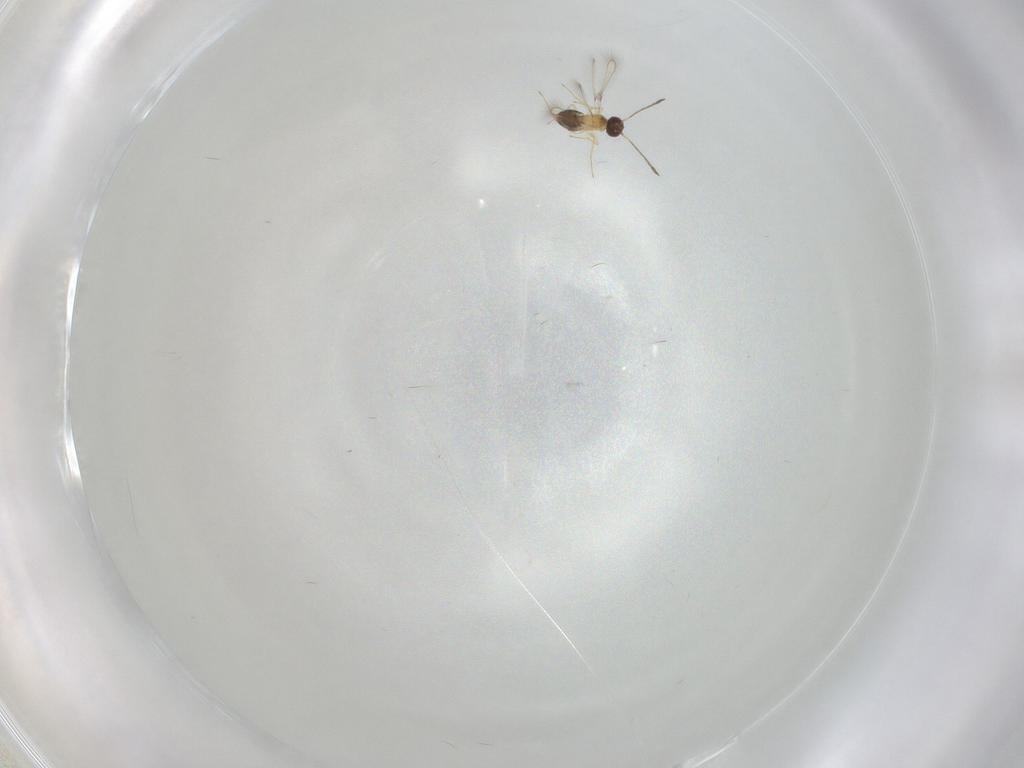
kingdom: Animalia
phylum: Arthropoda
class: Insecta
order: Hymenoptera
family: Mymaridae
